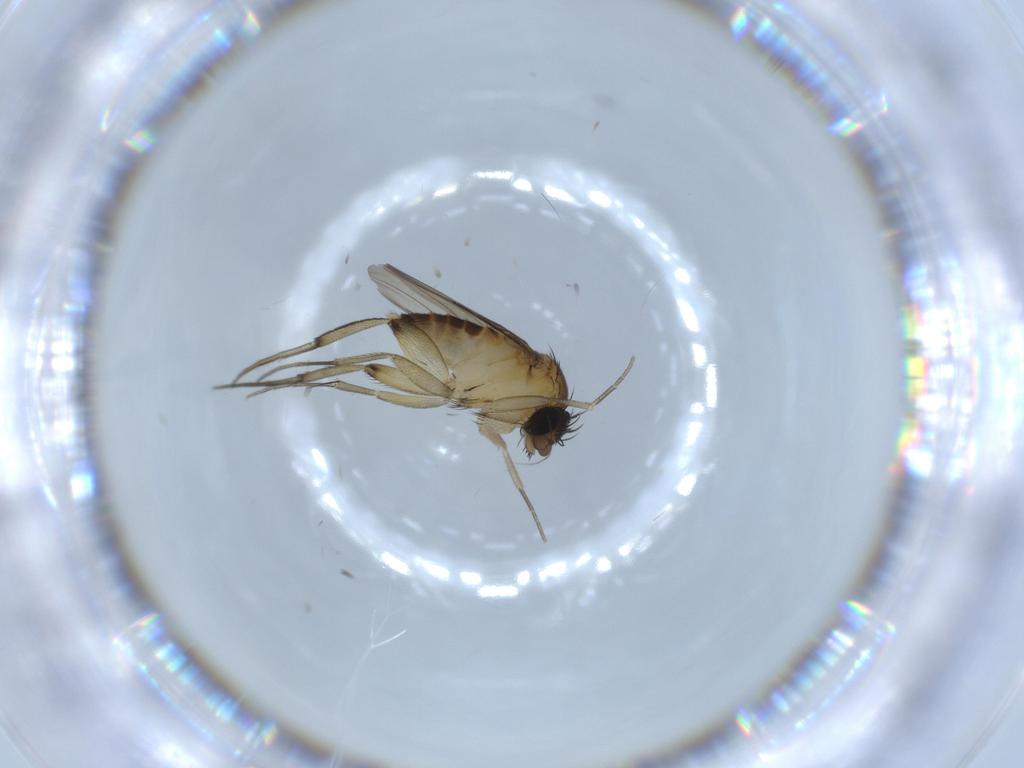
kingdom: Animalia
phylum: Arthropoda
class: Insecta
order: Diptera
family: Phoridae
